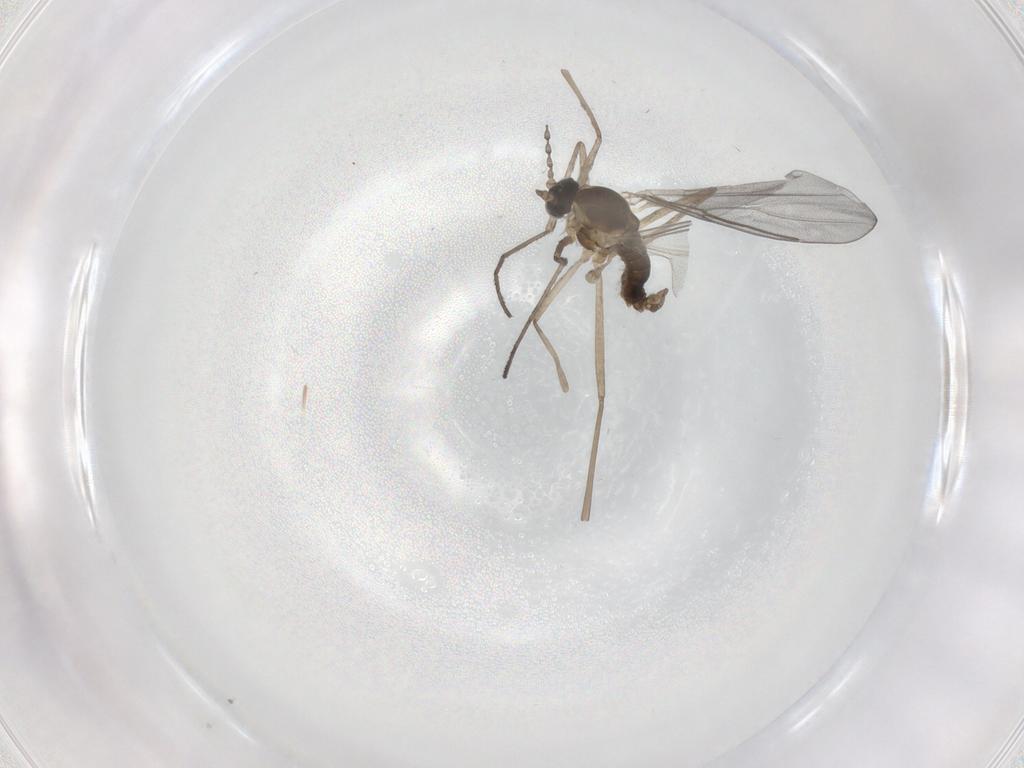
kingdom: Animalia
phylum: Arthropoda
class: Insecta
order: Diptera
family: Cecidomyiidae
